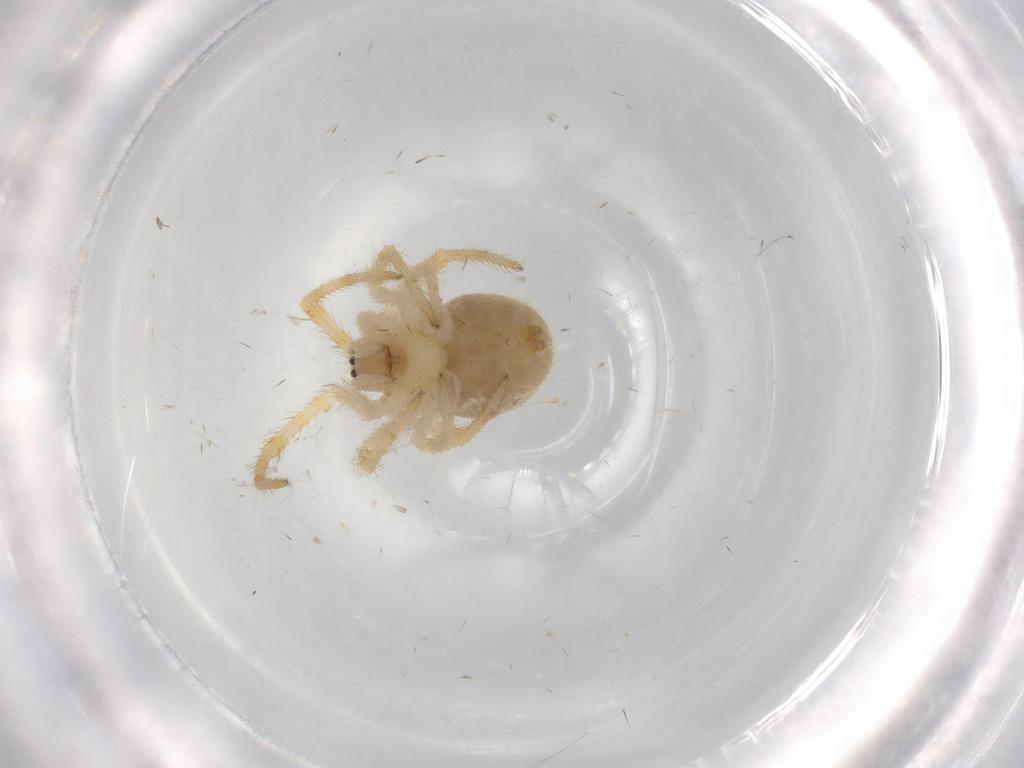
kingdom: Animalia
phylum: Arthropoda
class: Arachnida
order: Araneae
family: Theridiidae
